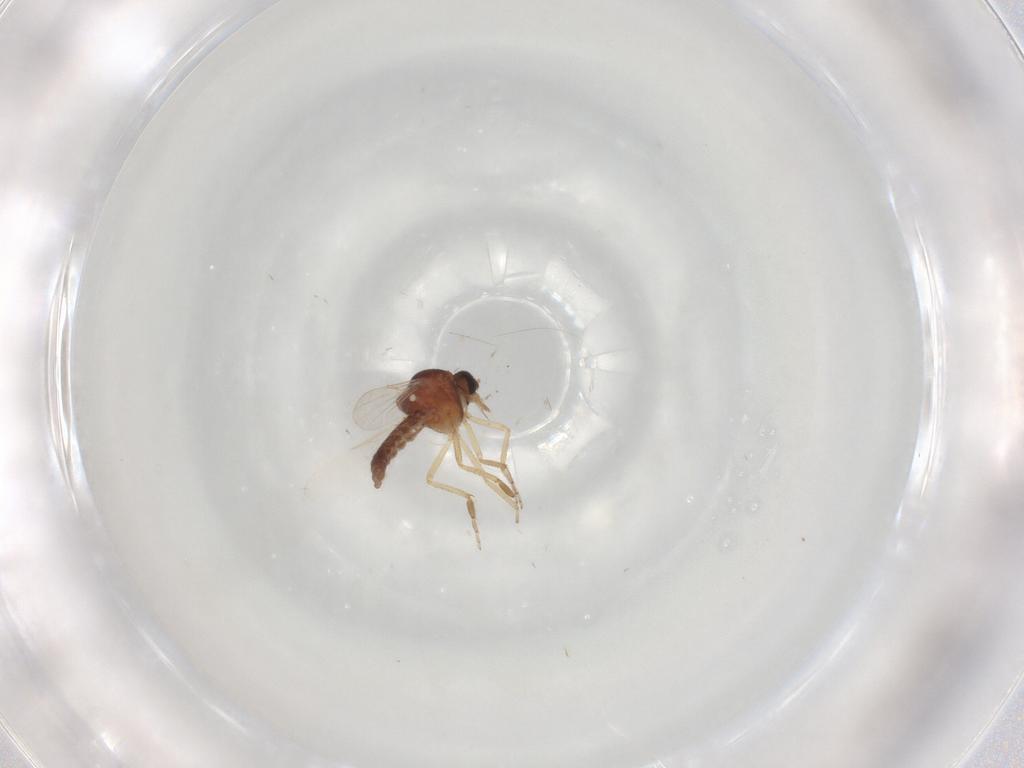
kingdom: Animalia
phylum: Arthropoda
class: Insecta
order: Diptera
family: Ceratopogonidae
